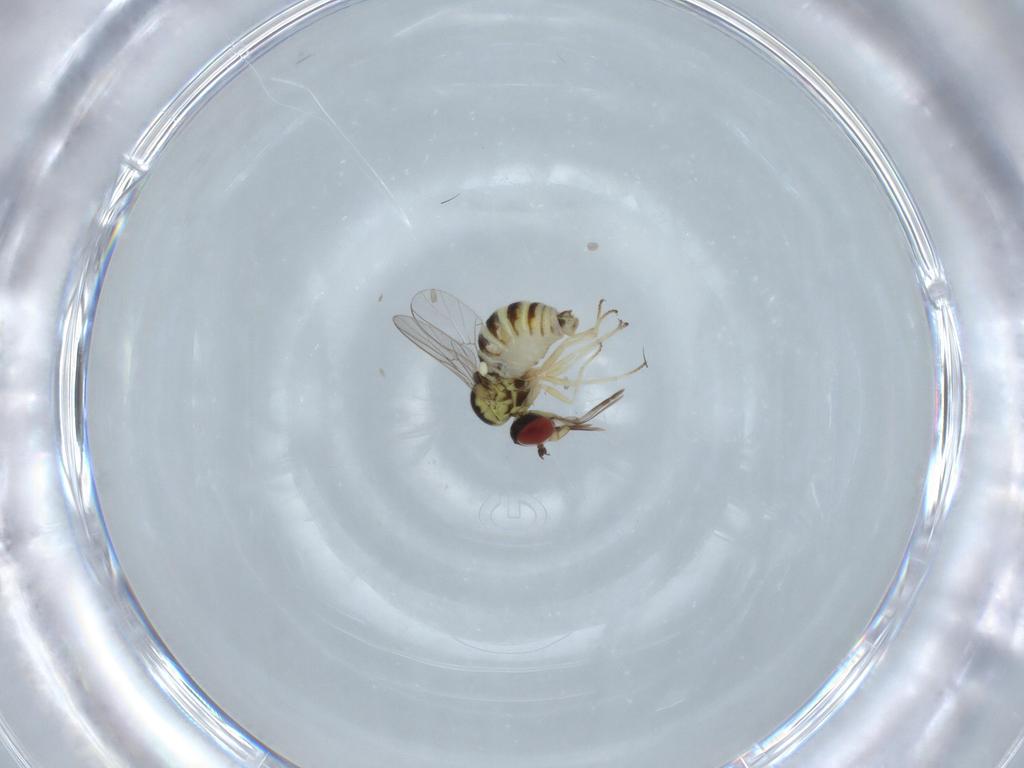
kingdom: Animalia
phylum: Arthropoda
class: Insecta
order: Diptera
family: Bombyliidae
